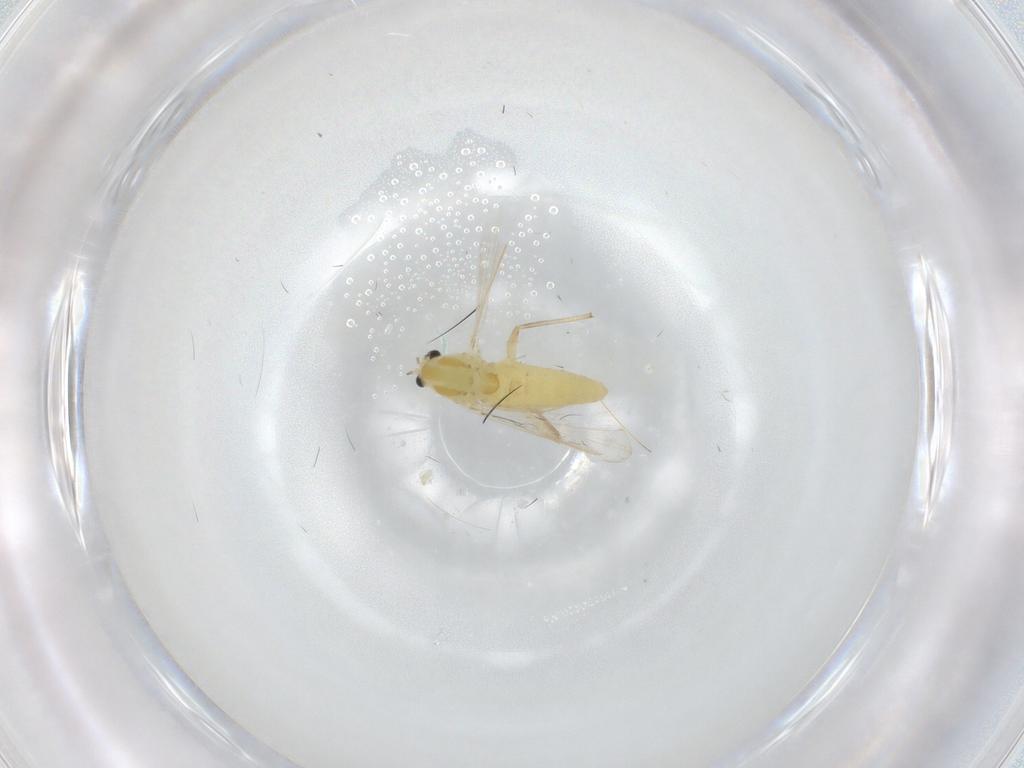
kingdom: Animalia
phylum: Arthropoda
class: Insecta
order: Diptera
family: Chironomidae
